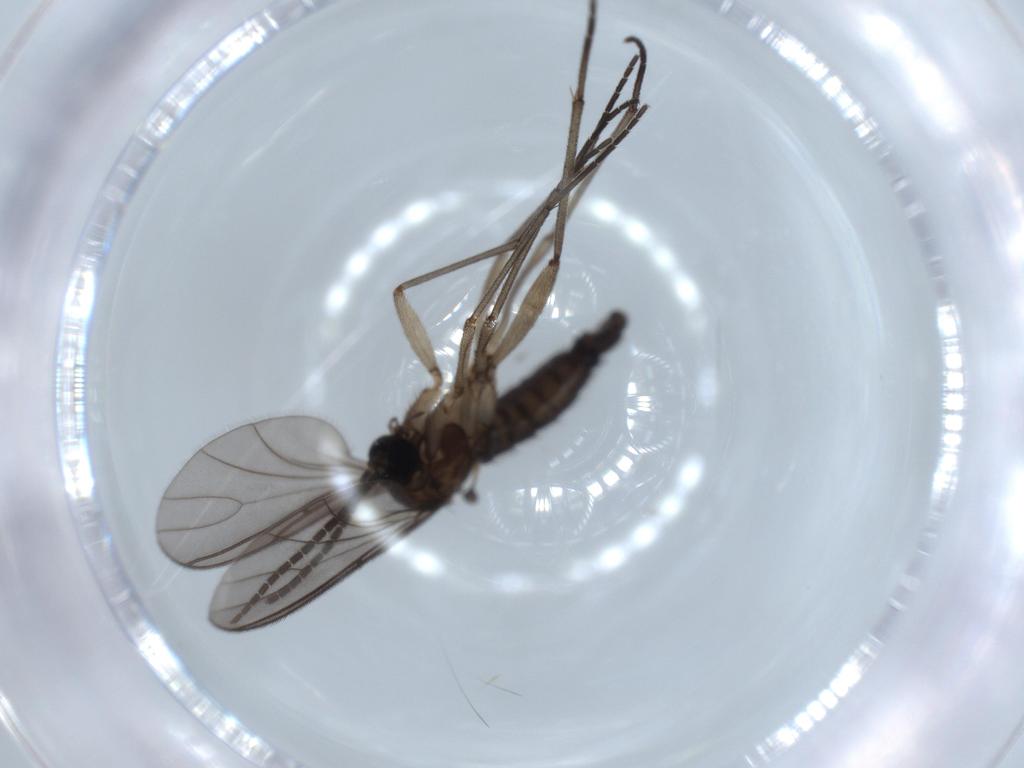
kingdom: Animalia
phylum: Arthropoda
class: Insecta
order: Diptera
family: Sciaridae
